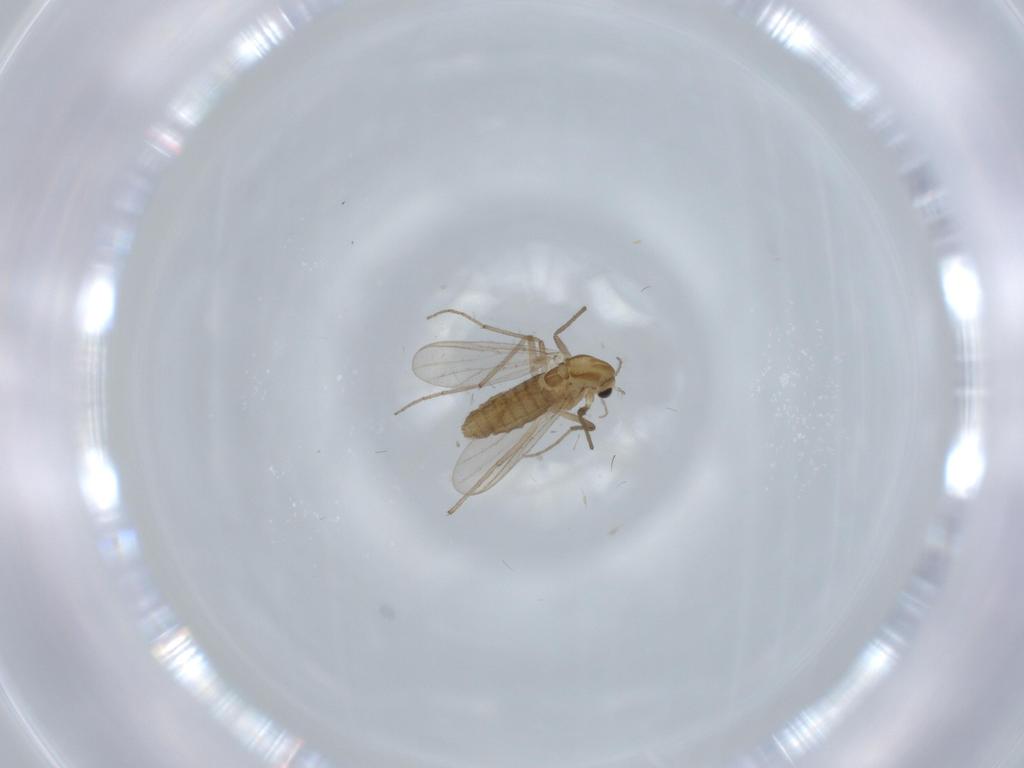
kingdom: Animalia
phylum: Arthropoda
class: Insecta
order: Diptera
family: Chironomidae
